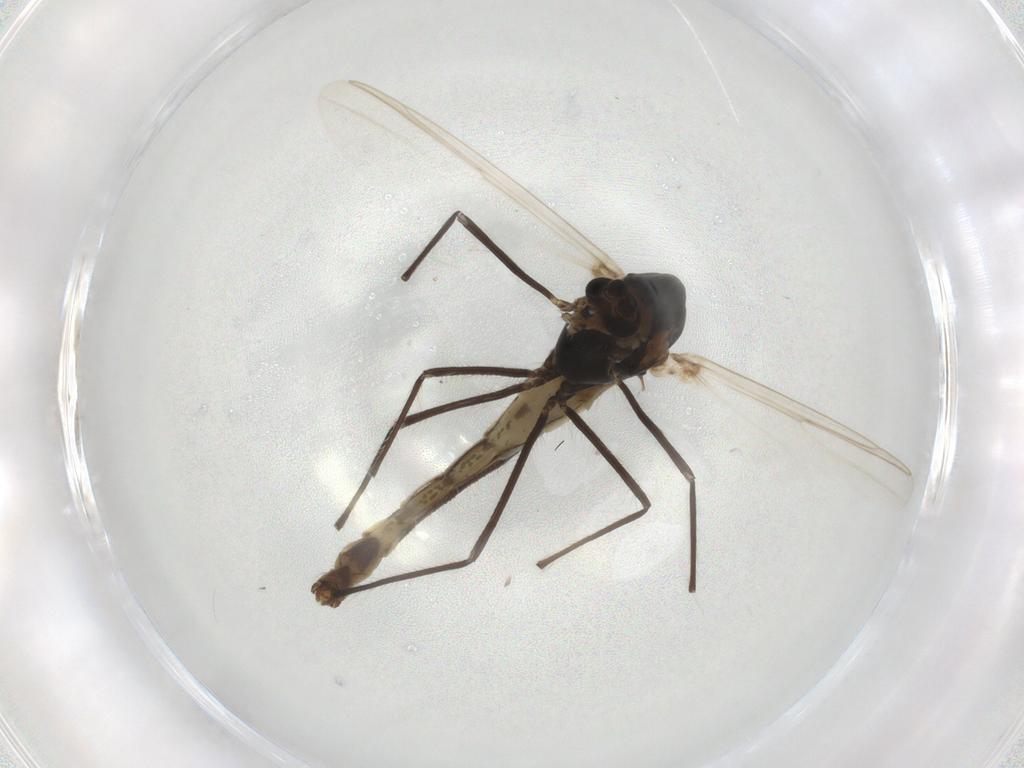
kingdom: Animalia
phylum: Arthropoda
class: Insecta
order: Diptera
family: Chironomidae
